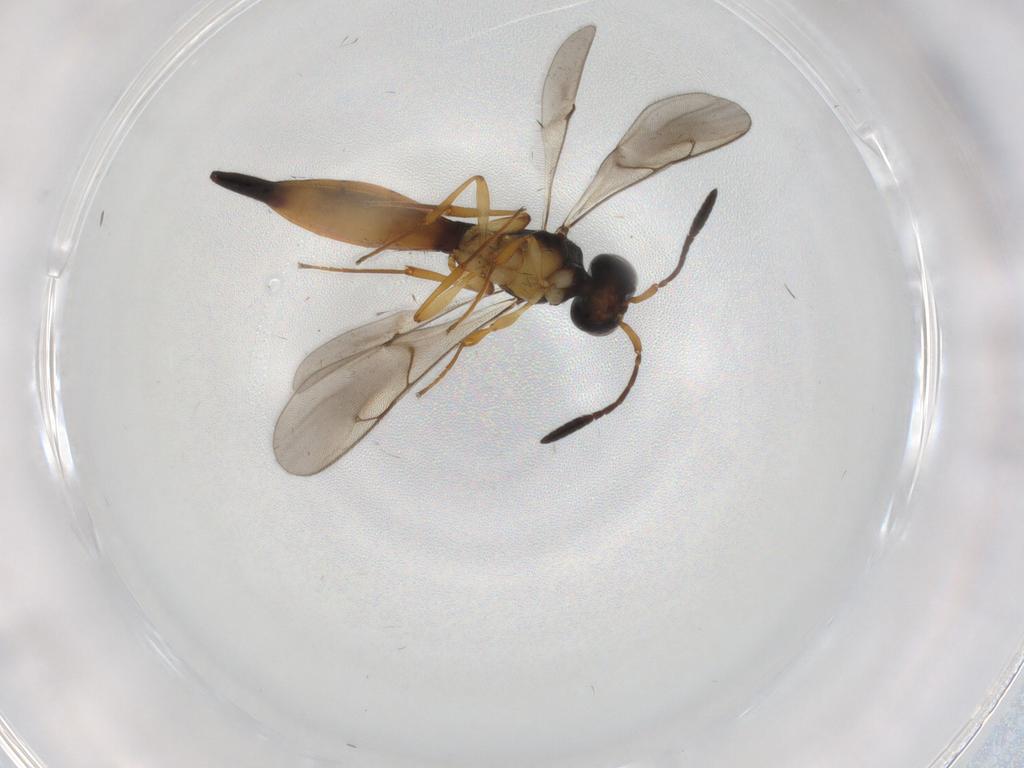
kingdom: Animalia
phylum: Arthropoda
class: Insecta
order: Hymenoptera
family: Scelionidae
